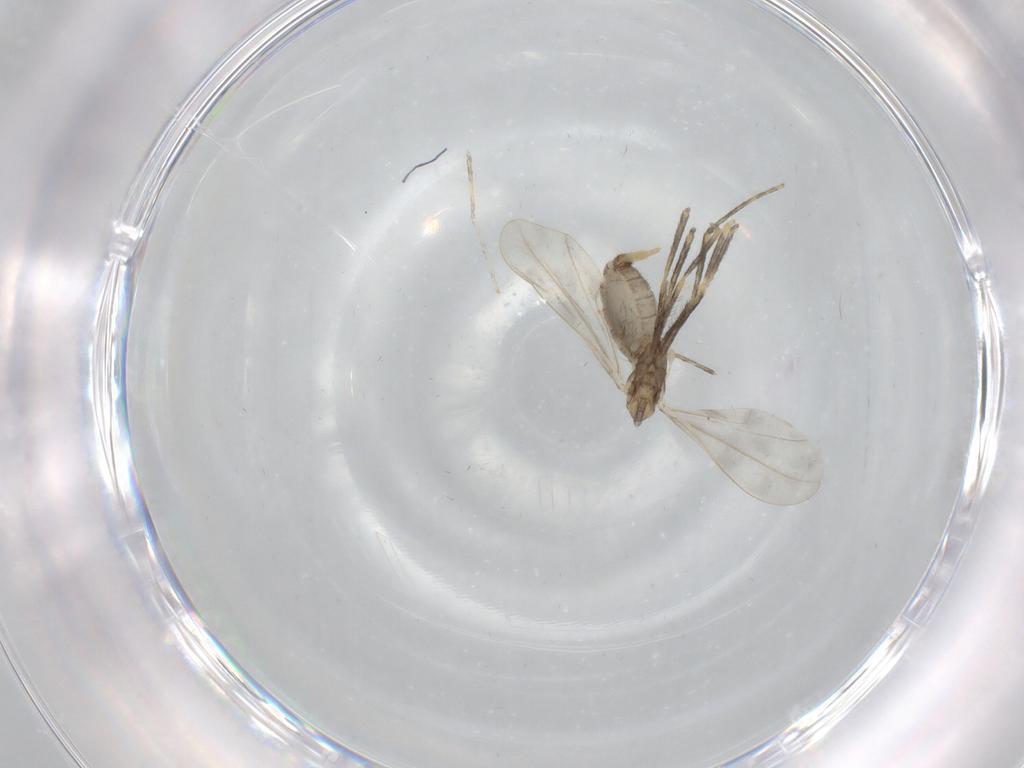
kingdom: Animalia
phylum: Arthropoda
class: Insecta
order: Diptera
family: Cecidomyiidae
